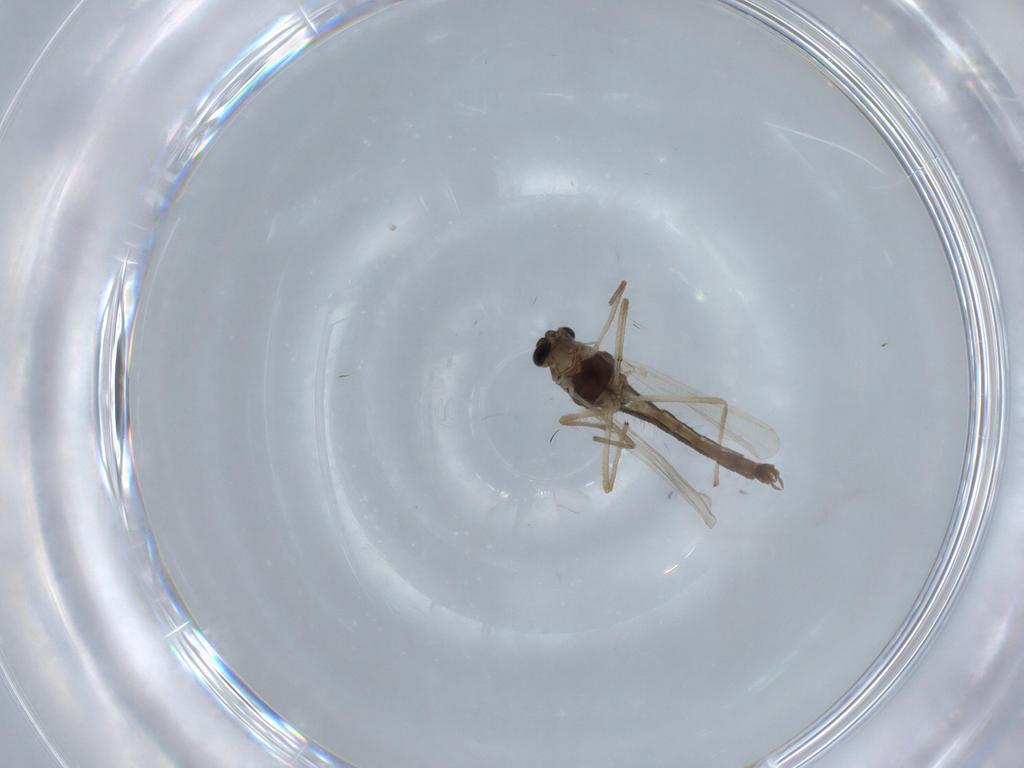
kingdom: Animalia
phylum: Arthropoda
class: Insecta
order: Diptera
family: Chironomidae
